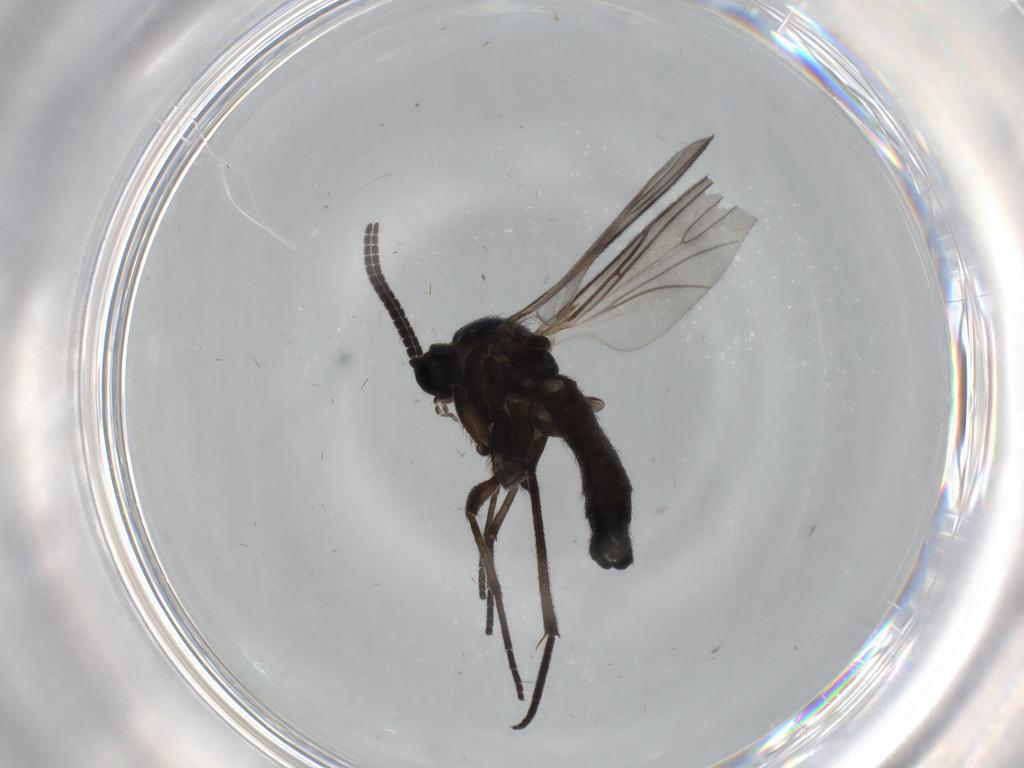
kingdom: Animalia
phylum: Arthropoda
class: Insecta
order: Diptera
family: Sciaridae
